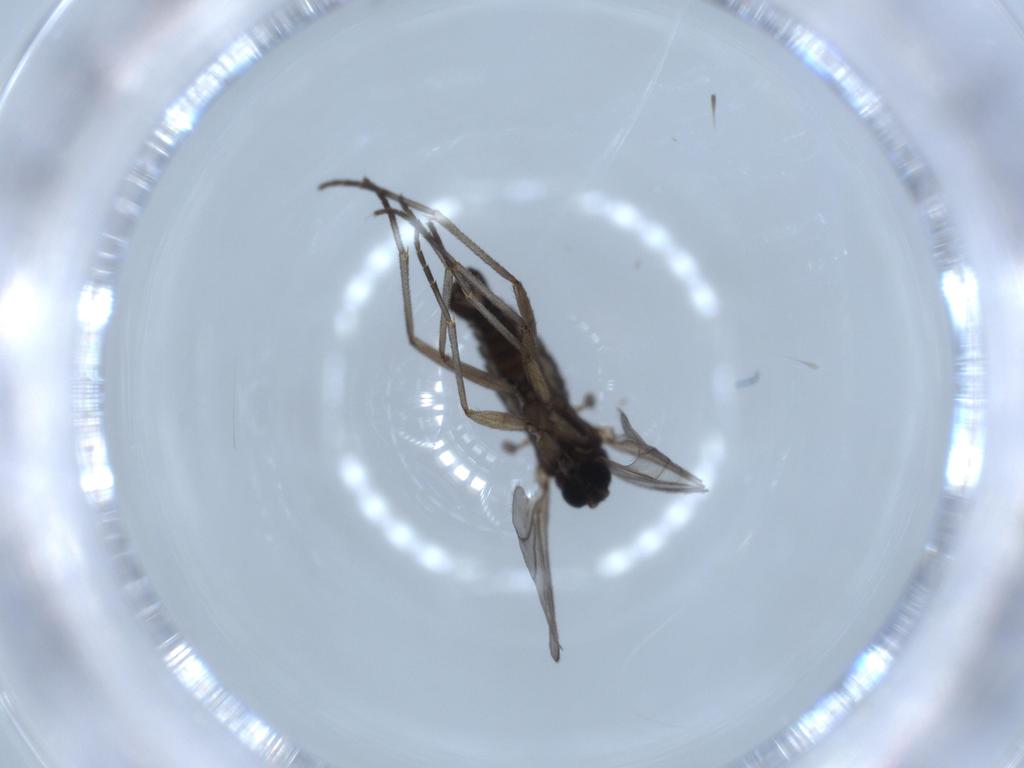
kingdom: Animalia
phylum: Arthropoda
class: Insecta
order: Diptera
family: Sciaridae
